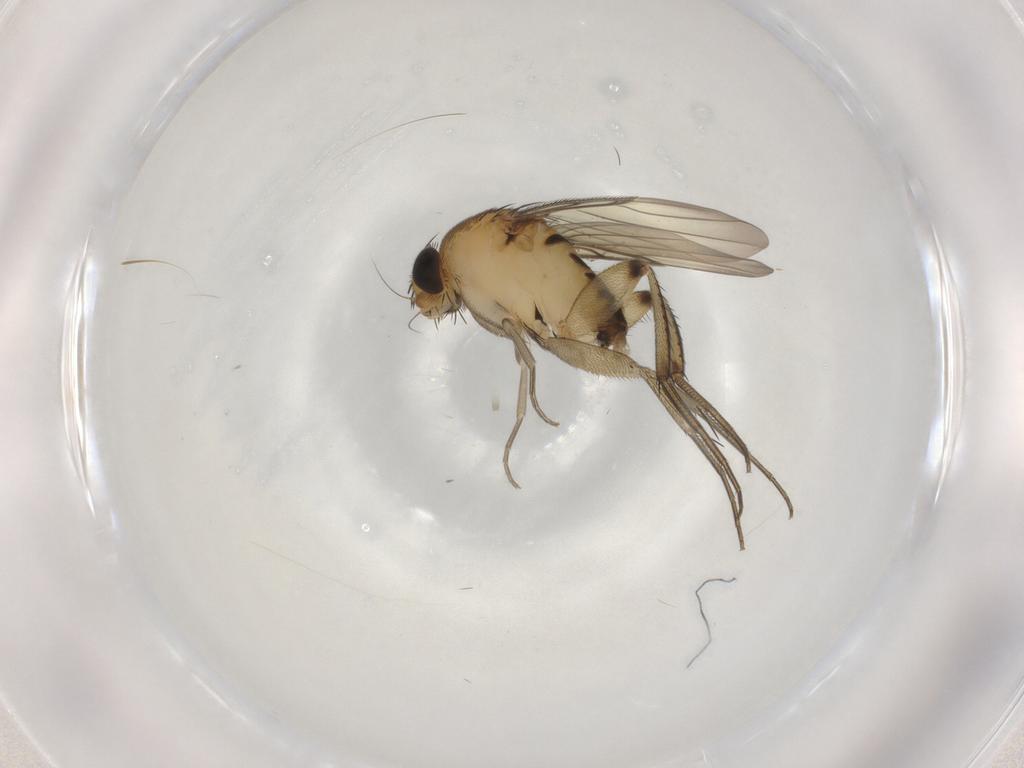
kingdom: Animalia
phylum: Arthropoda
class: Insecta
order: Diptera
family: Phoridae
